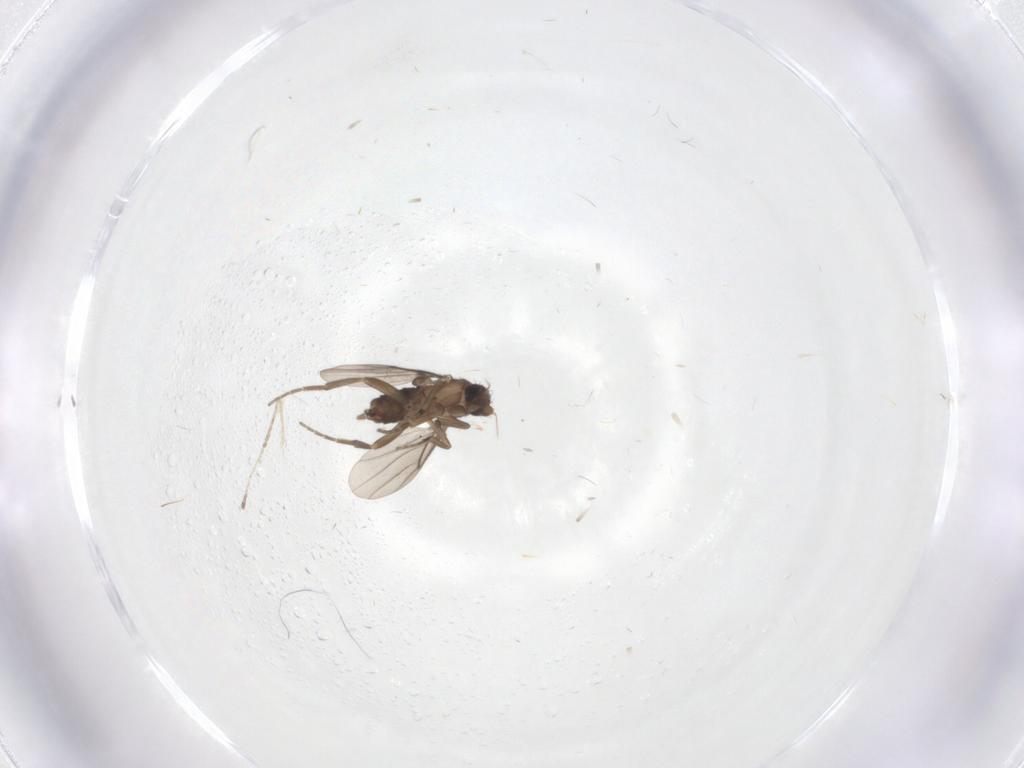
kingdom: Animalia
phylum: Arthropoda
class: Insecta
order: Diptera
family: Phoridae
